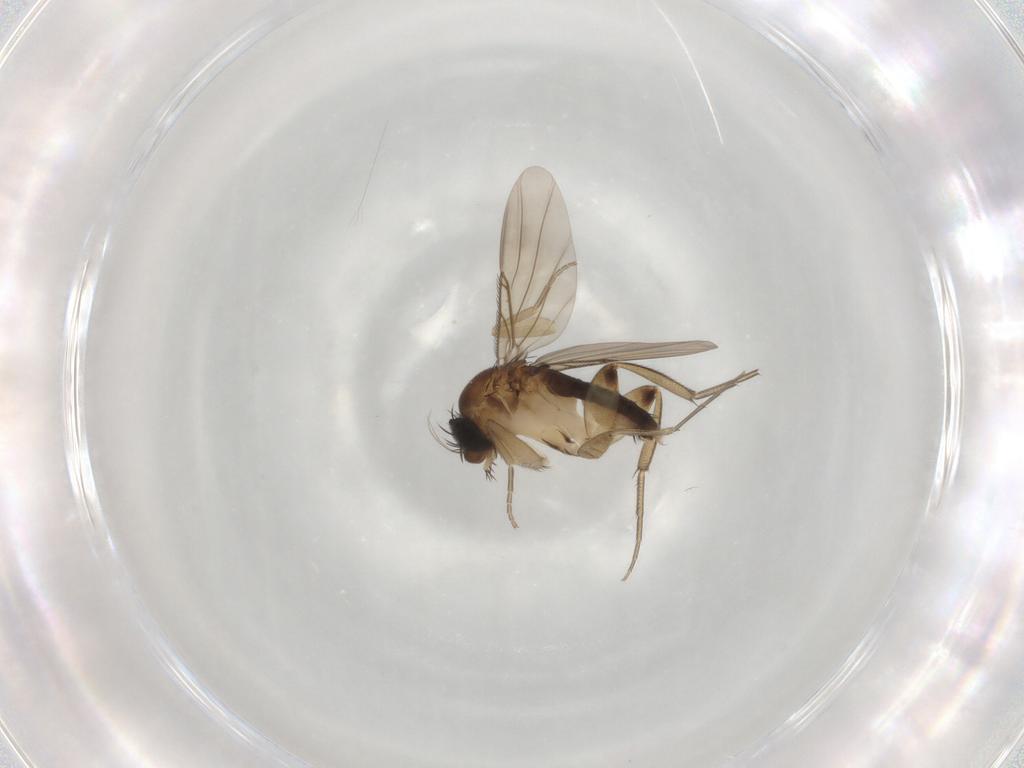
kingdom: Animalia
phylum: Arthropoda
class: Insecta
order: Diptera
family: Phoridae
